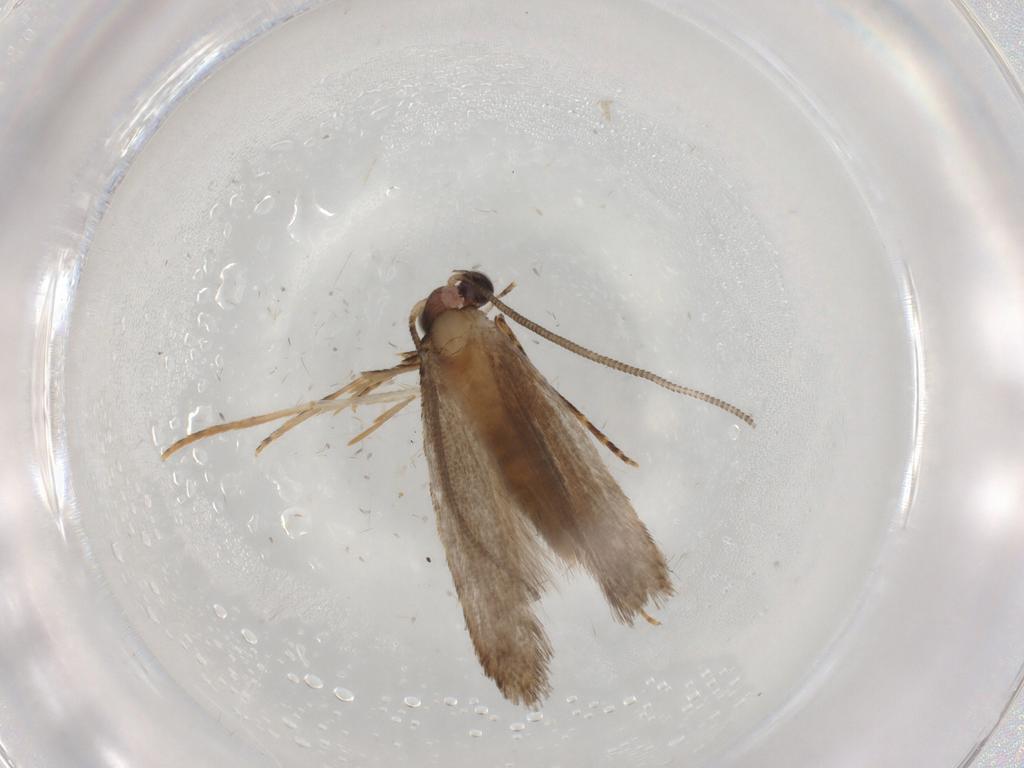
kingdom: Animalia
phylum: Arthropoda
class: Insecta
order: Lepidoptera
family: Tineidae
